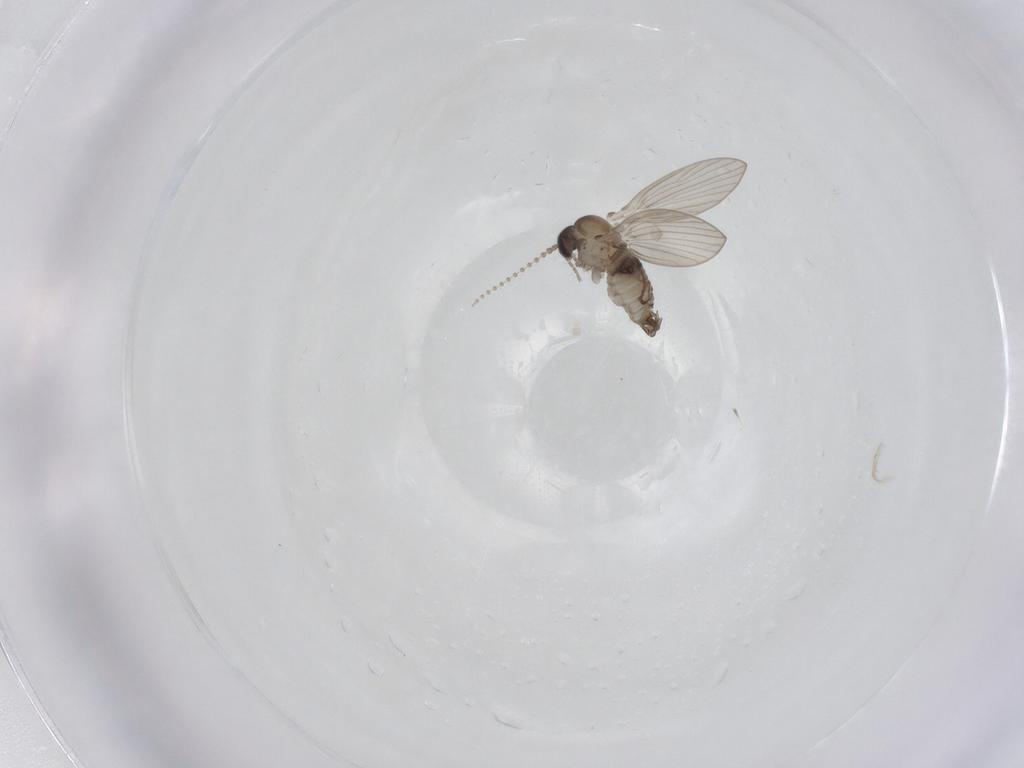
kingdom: Animalia
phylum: Arthropoda
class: Insecta
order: Diptera
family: Psychodidae
